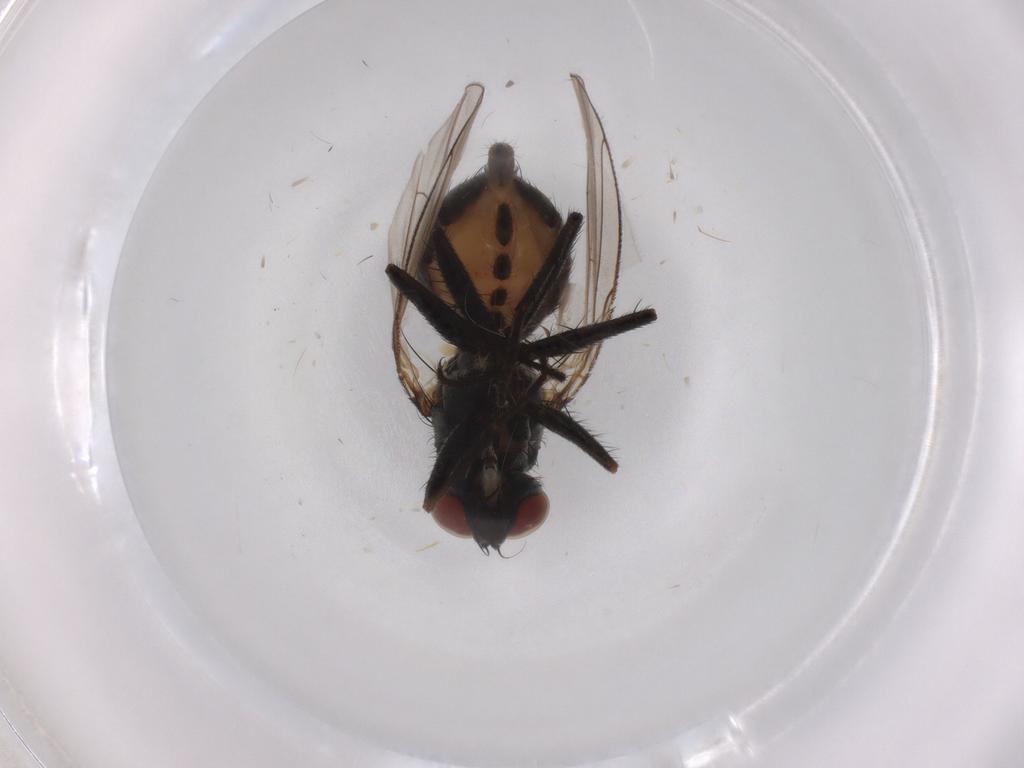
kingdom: Animalia
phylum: Arthropoda
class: Insecta
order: Diptera
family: Muscidae
